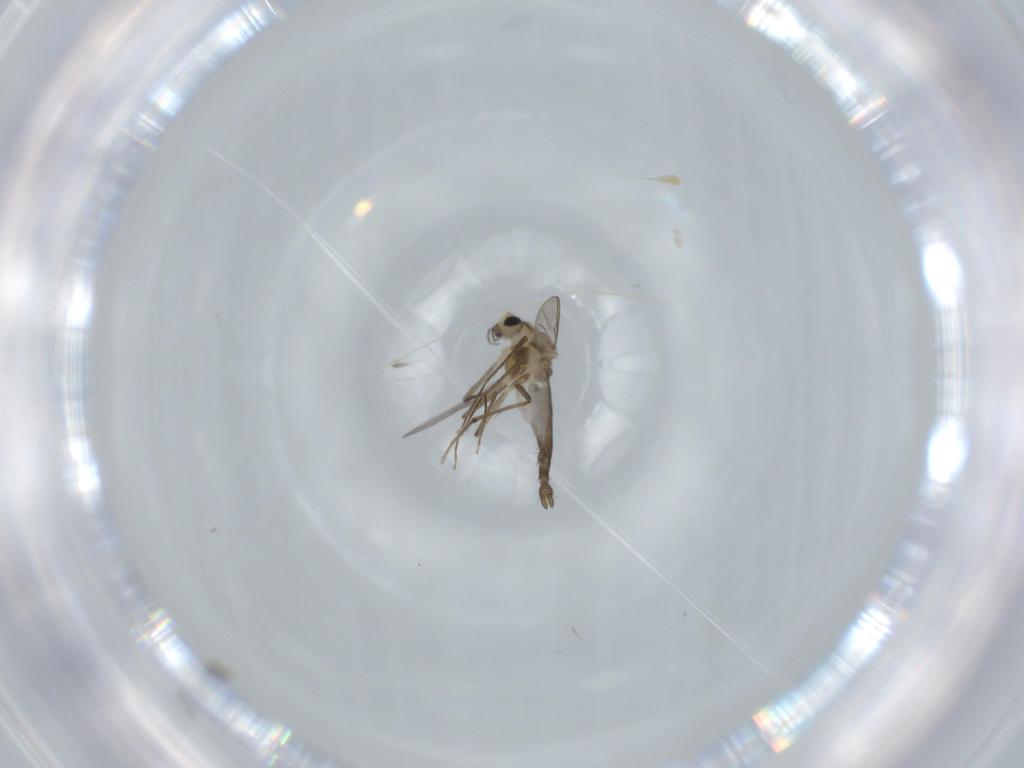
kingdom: Animalia
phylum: Arthropoda
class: Insecta
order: Diptera
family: Chironomidae
